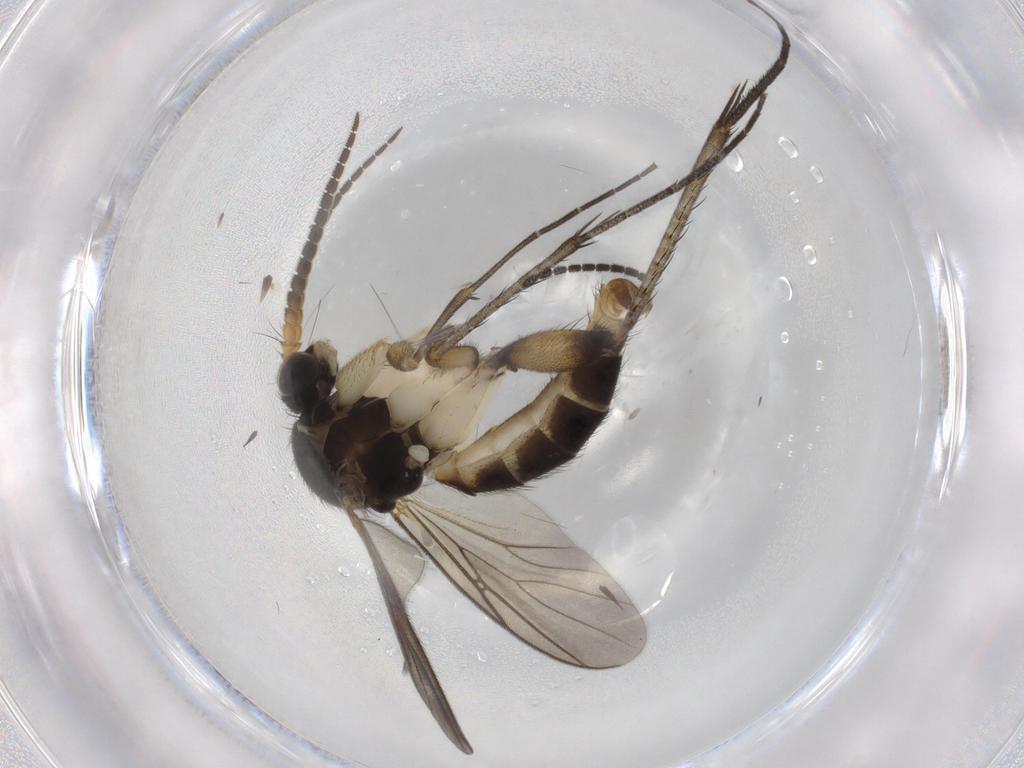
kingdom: Animalia
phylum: Arthropoda
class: Insecta
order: Diptera
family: Sciaridae
